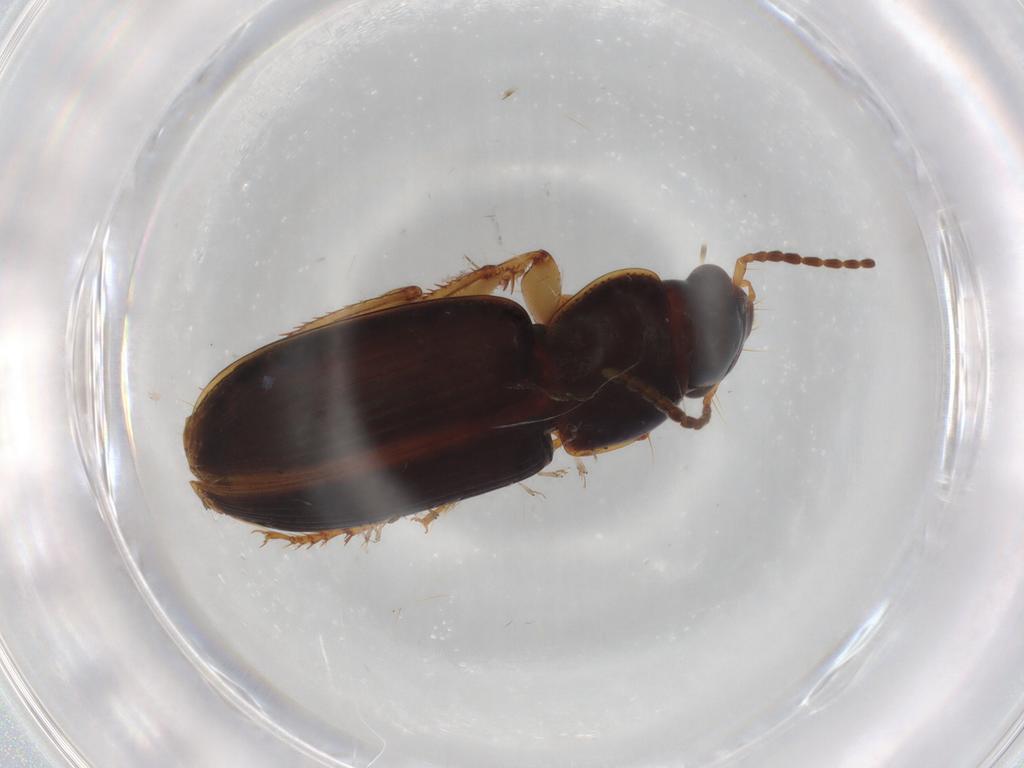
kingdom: Animalia
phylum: Arthropoda
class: Insecta
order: Coleoptera
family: Carabidae
